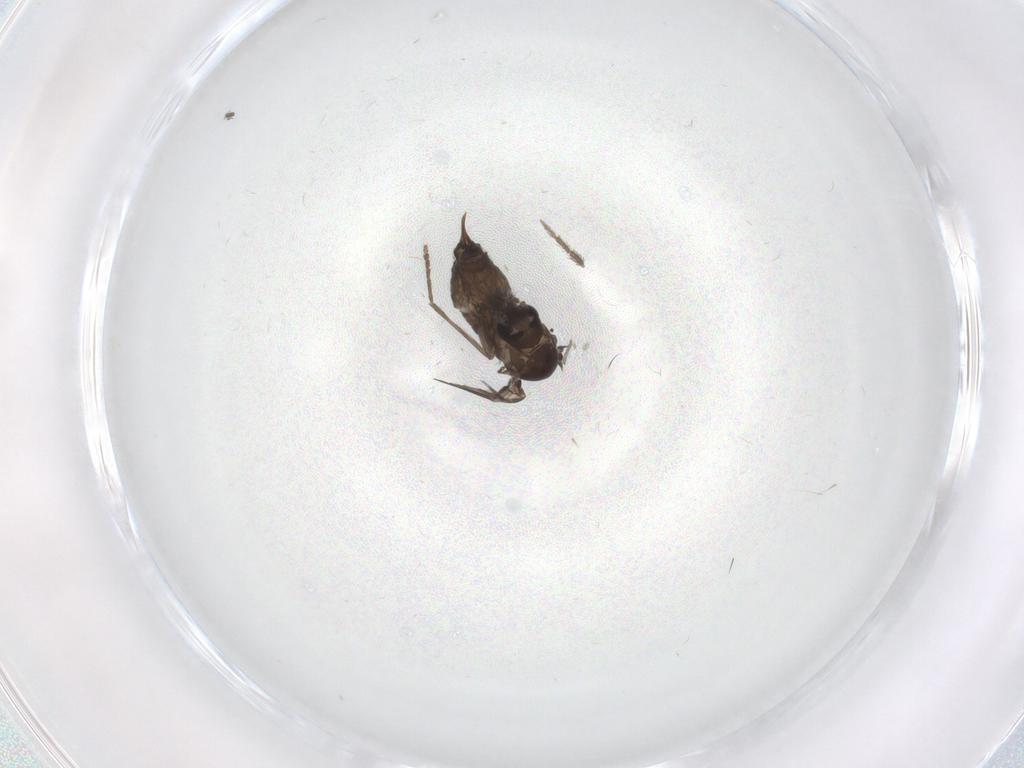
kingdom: Animalia
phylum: Arthropoda
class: Insecta
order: Diptera
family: Psychodidae
